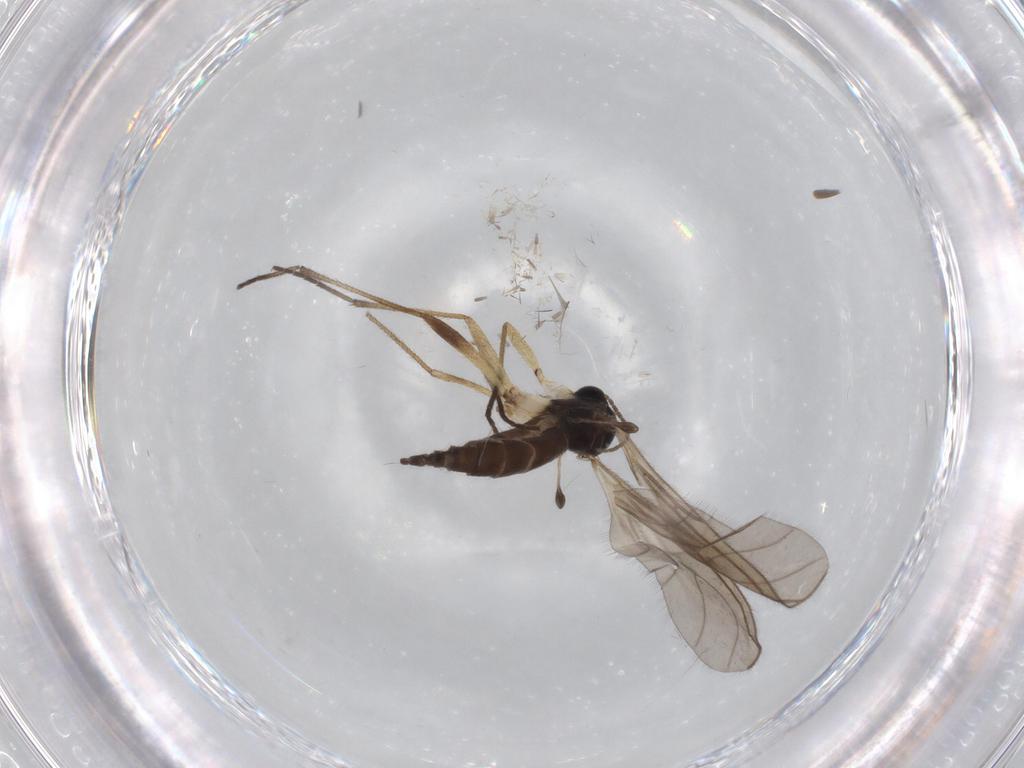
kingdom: Animalia
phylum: Arthropoda
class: Insecta
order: Diptera
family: Sciaridae
